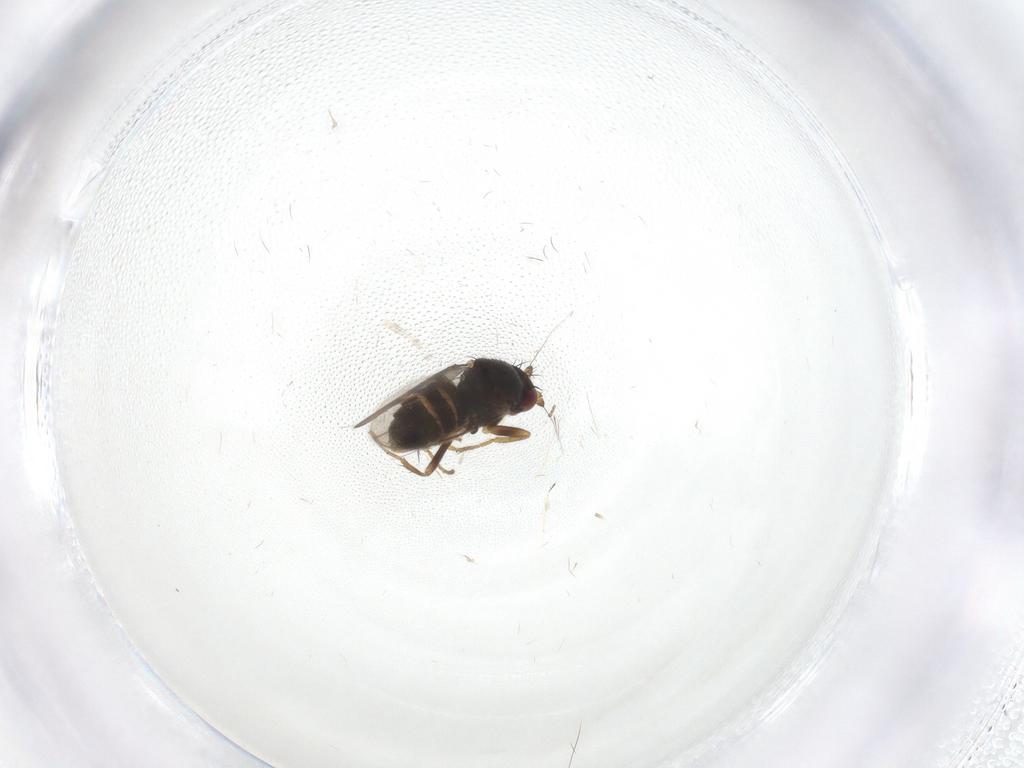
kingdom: Animalia
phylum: Arthropoda
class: Insecta
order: Diptera
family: Sphaeroceridae
